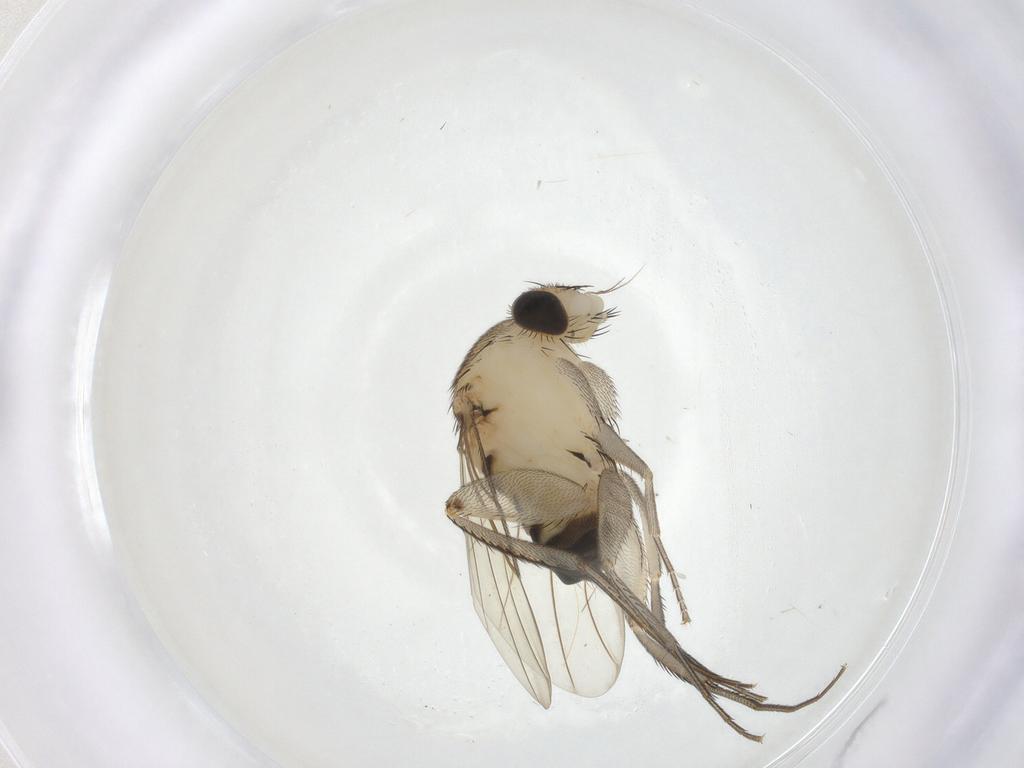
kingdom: Animalia
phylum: Arthropoda
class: Insecta
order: Diptera
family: Phoridae
